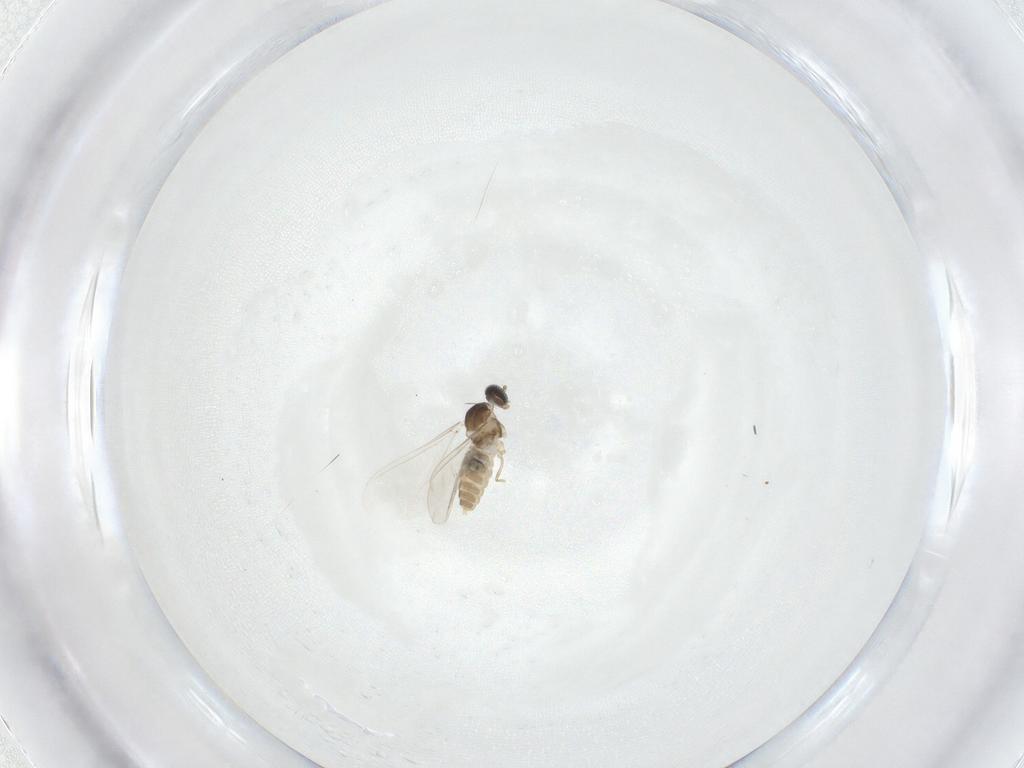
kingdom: Animalia
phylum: Arthropoda
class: Insecta
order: Diptera
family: Cecidomyiidae
